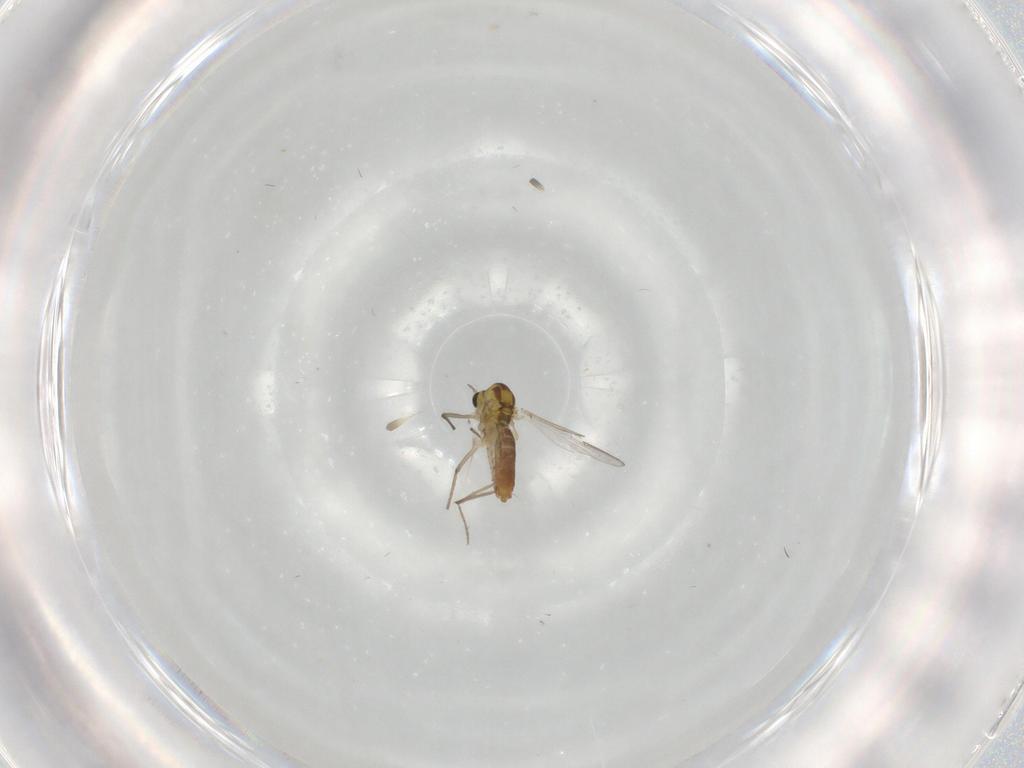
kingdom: Animalia
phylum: Arthropoda
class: Insecta
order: Diptera
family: Chironomidae
